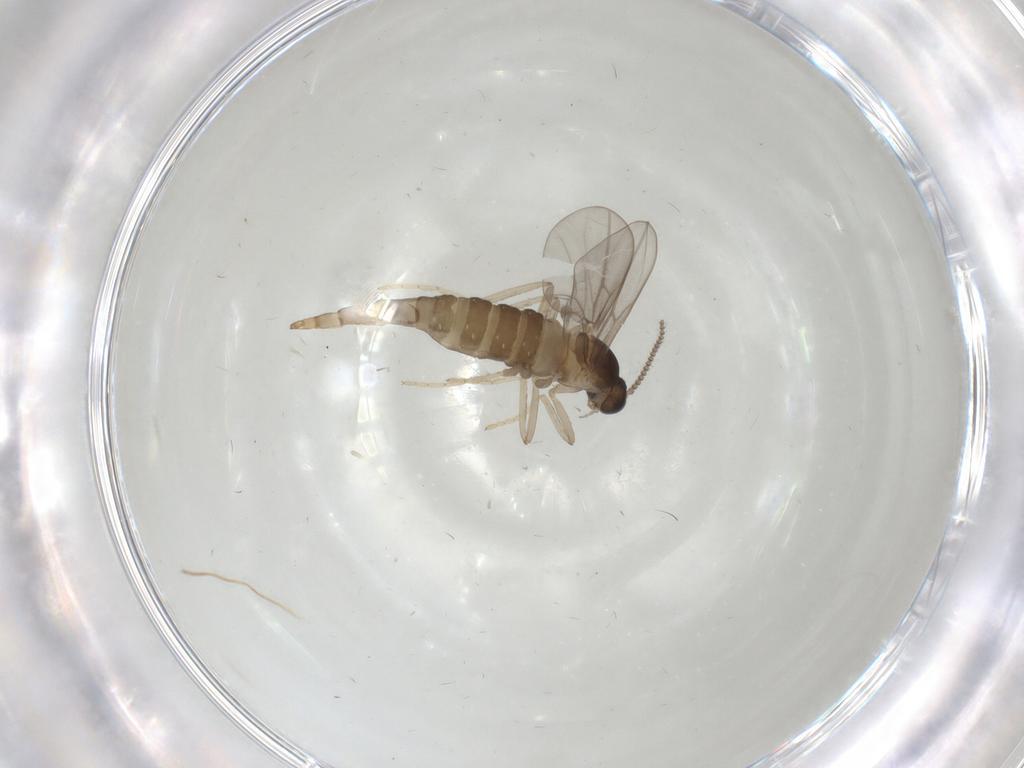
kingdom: Animalia
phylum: Arthropoda
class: Insecta
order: Diptera
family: Cecidomyiidae
